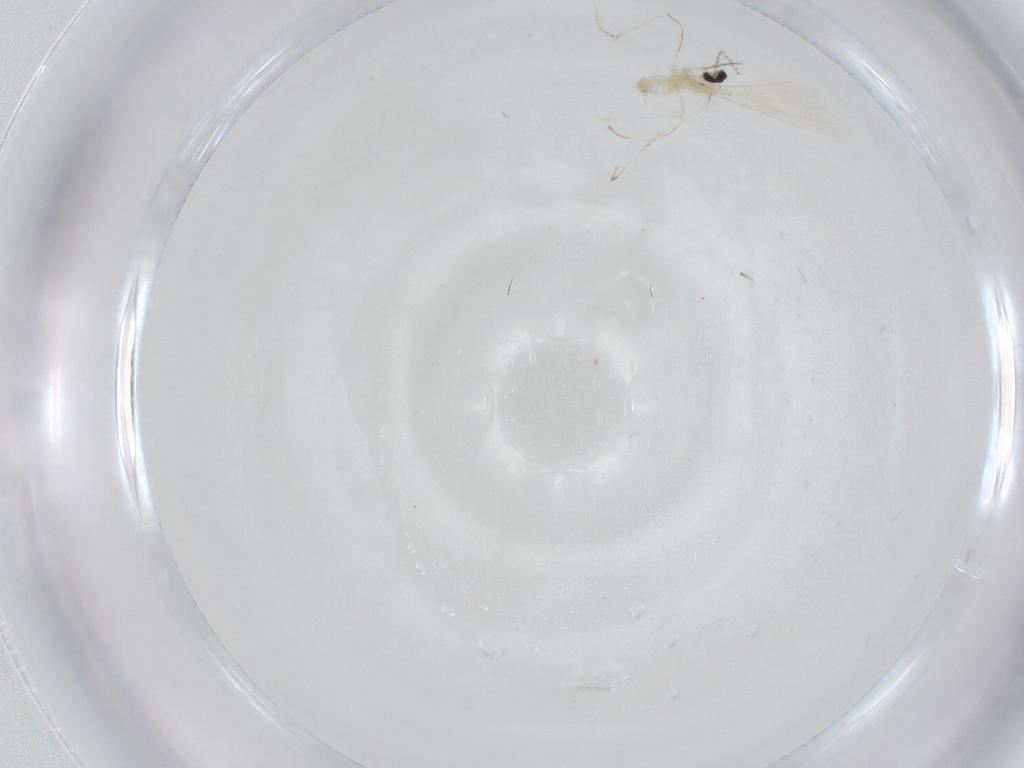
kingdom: Animalia
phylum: Arthropoda
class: Insecta
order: Diptera
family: Cecidomyiidae
